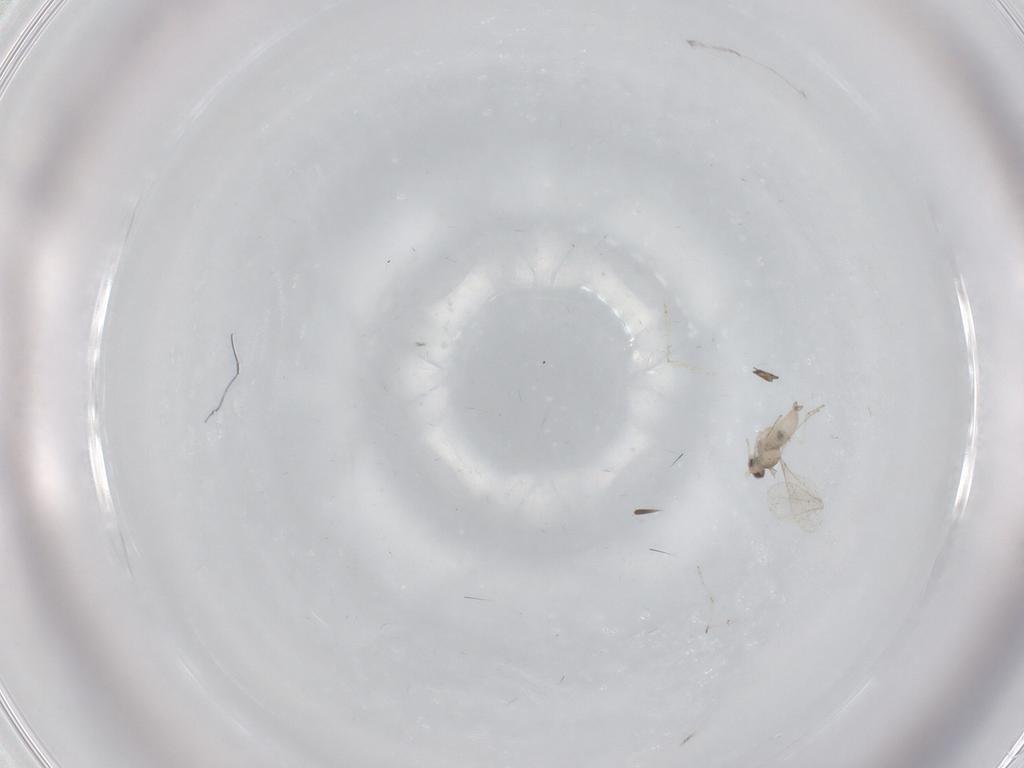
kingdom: Animalia
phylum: Arthropoda
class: Insecta
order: Diptera
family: Cecidomyiidae
